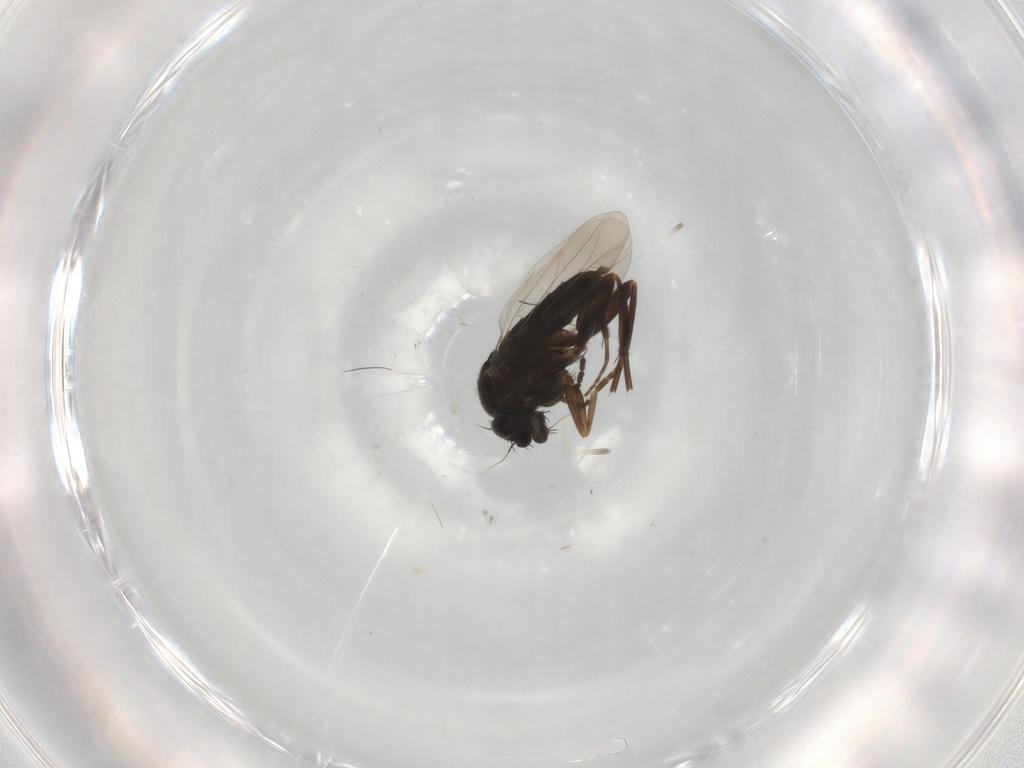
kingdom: Animalia
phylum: Arthropoda
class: Insecta
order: Diptera
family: Phoridae
